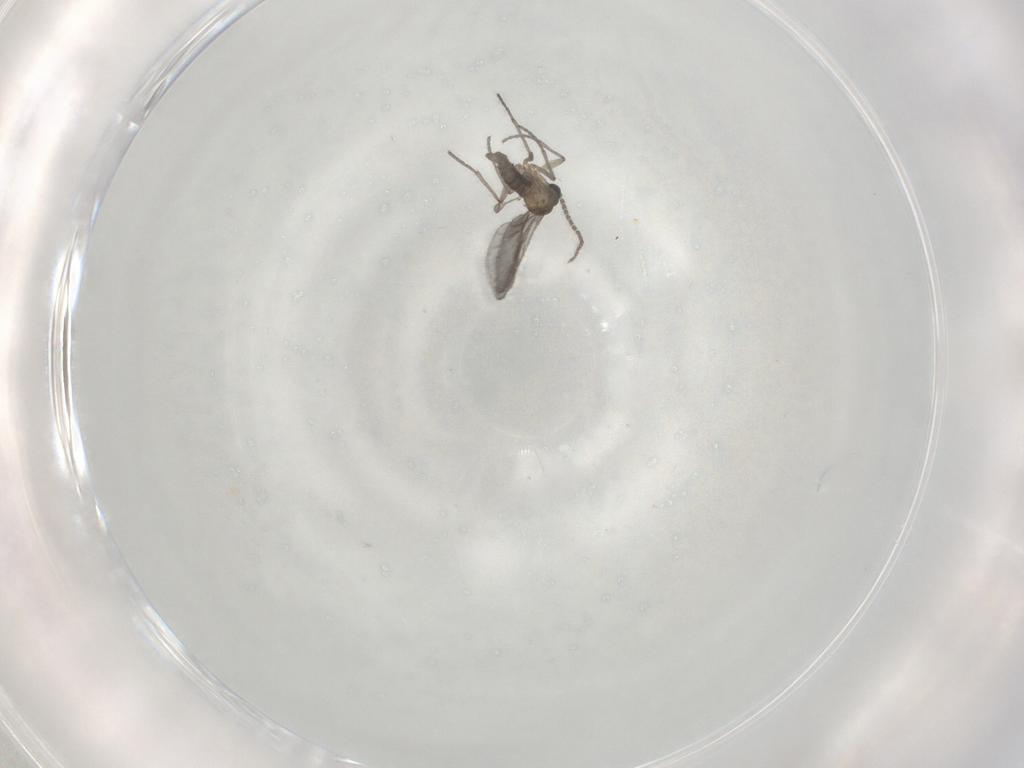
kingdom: Animalia
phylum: Arthropoda
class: Insecta
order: Diptera
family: Sciaridae
